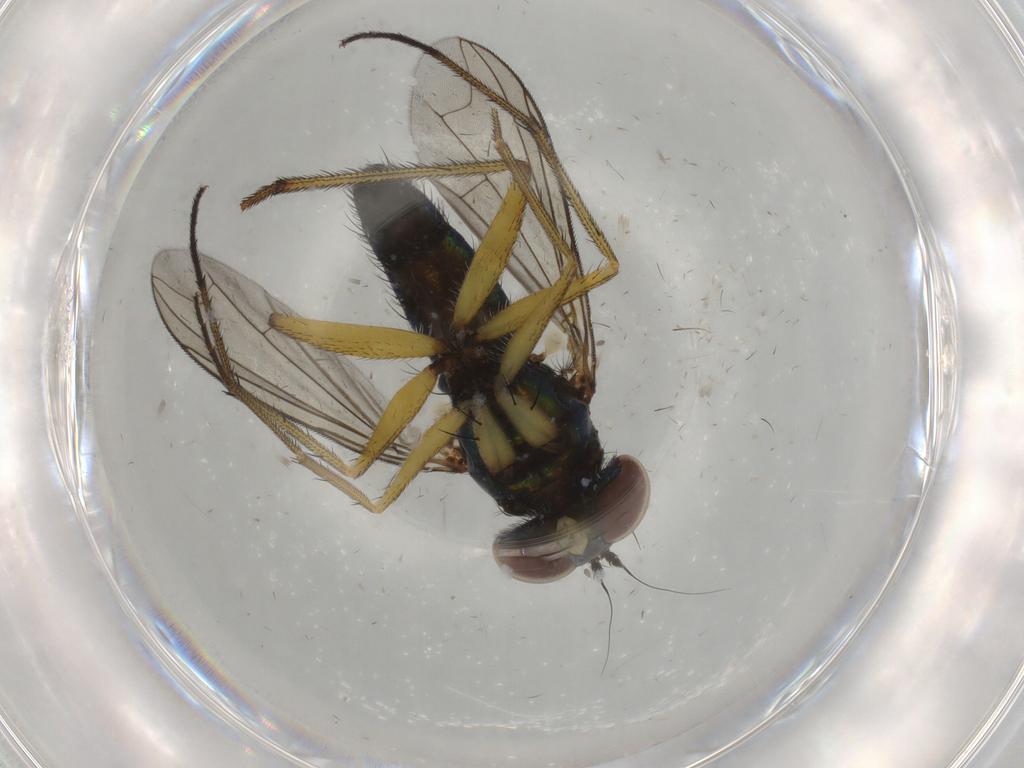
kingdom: Animalia
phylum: Arthropoda
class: Insecta
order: Diptera
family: Dolichopodidae
